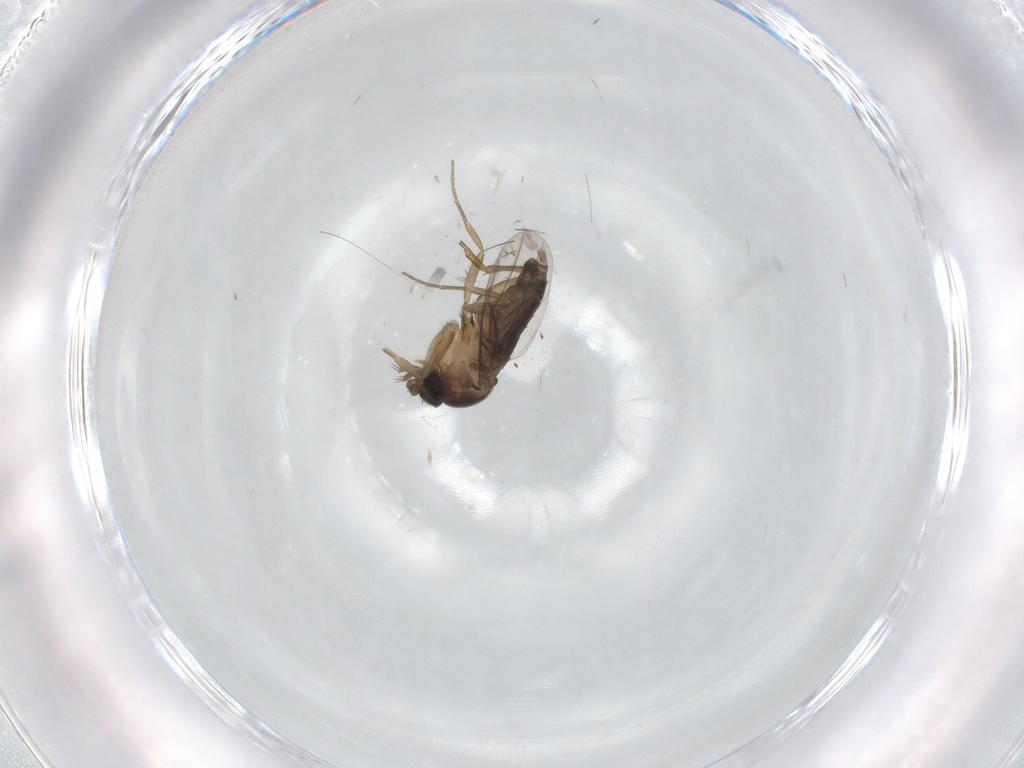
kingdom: Animalia
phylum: Arthropoda
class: Insecta
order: Diptera
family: Phoridae
